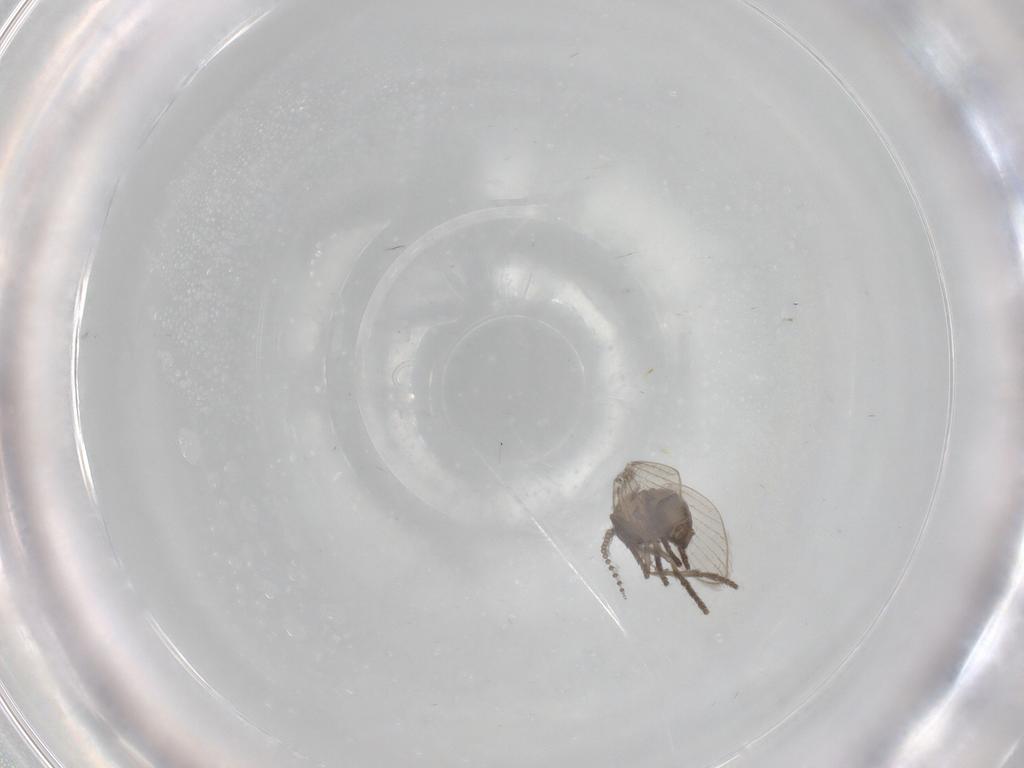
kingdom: Animalia
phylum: Arthropoda
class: Insecta
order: Diptera
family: Psychodidae
